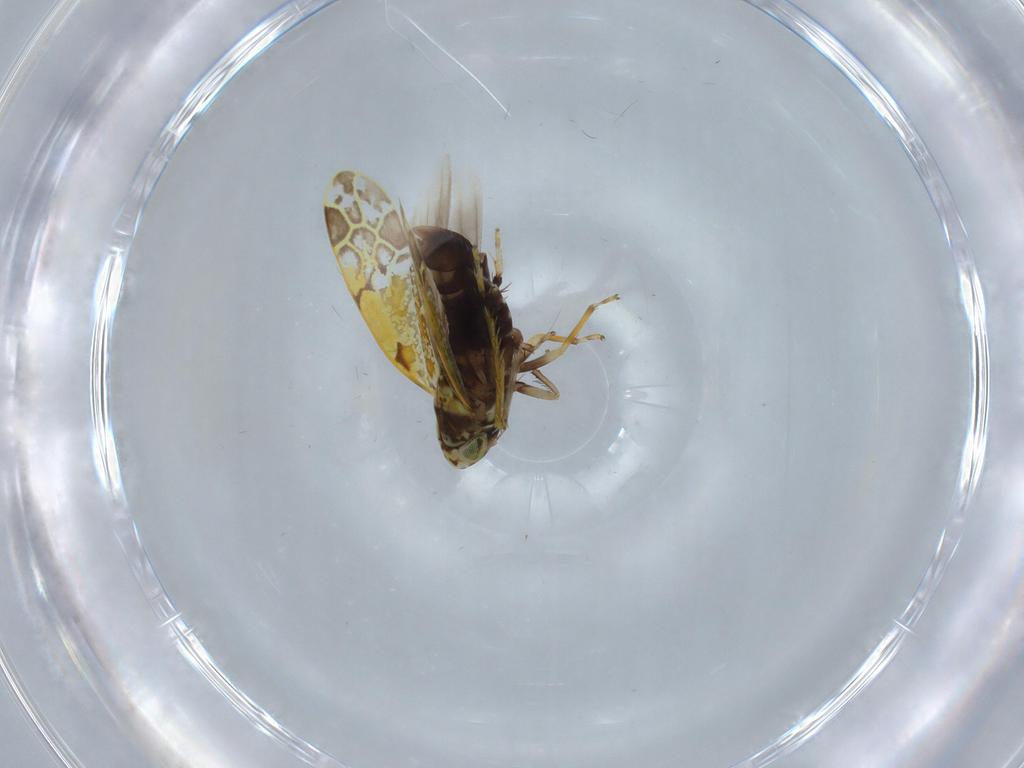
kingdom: Animalia
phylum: Arthropoda
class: Insecta
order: Hemiptera
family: Cicadellidae
